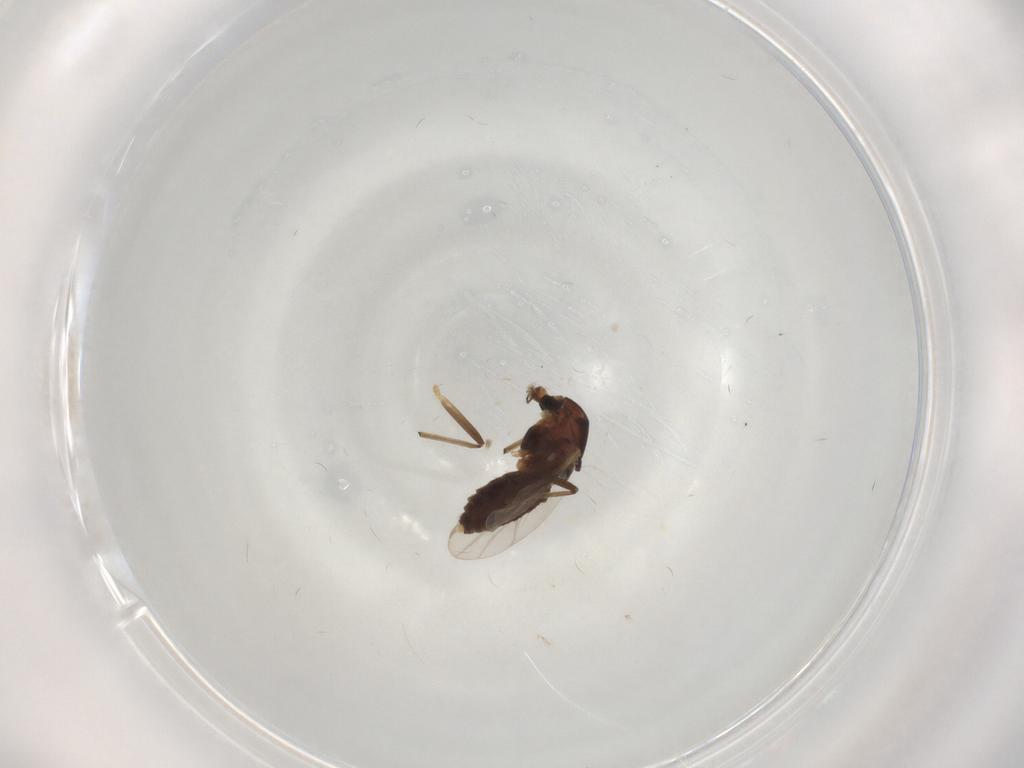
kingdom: Animalia
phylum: Arthropoda
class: Insecta
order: Diptera
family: Chironomidae
